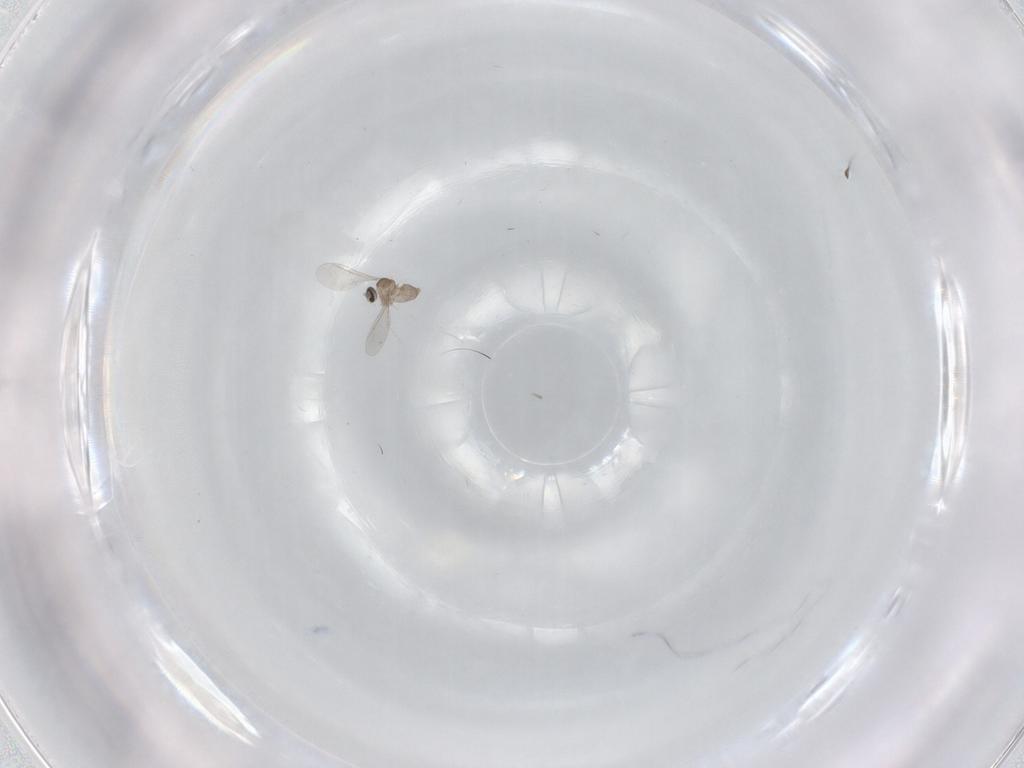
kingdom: Animalia
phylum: Arthropoda
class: Insecta
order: Diptera
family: Cecidomyiidae
